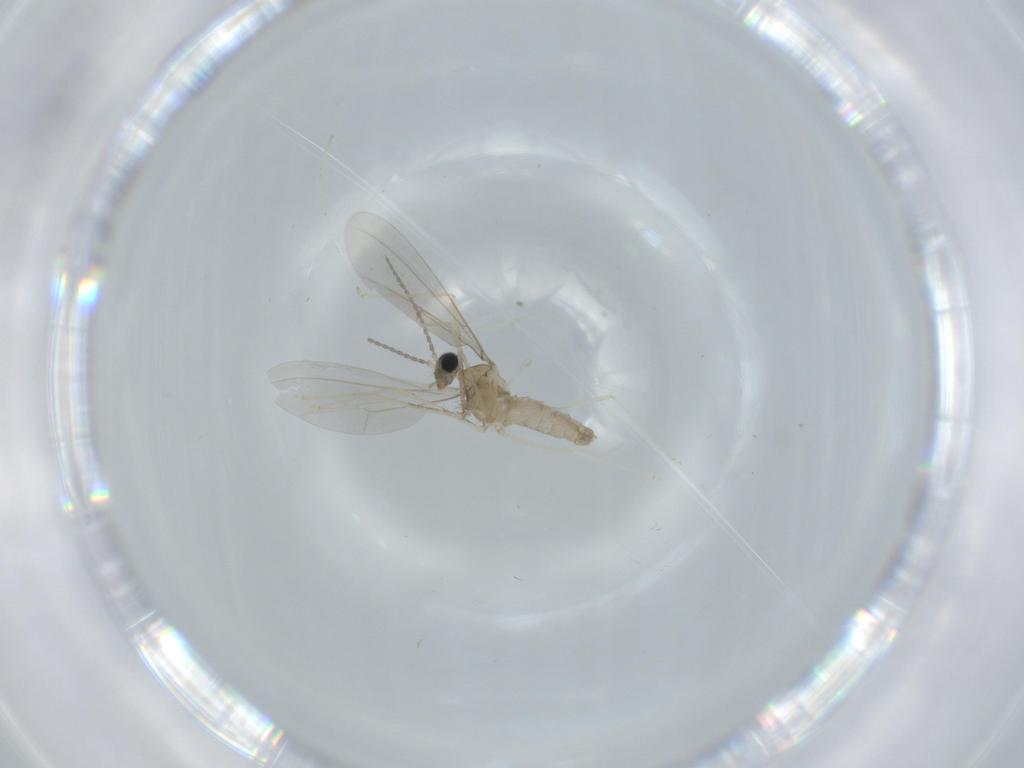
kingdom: Animalia
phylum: Arthropoda
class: Insecta
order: Diptera
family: Cecidomyiidae
